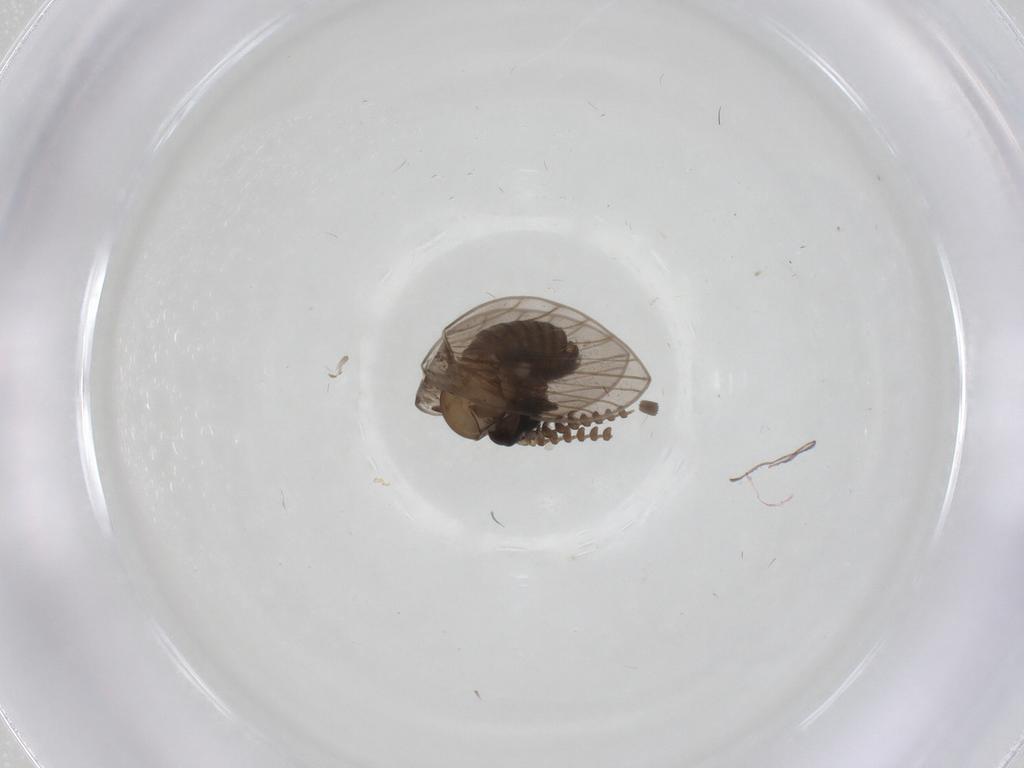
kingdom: Animalia
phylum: Arthropoda
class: Insecta
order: Diptera
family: Psychodidae
